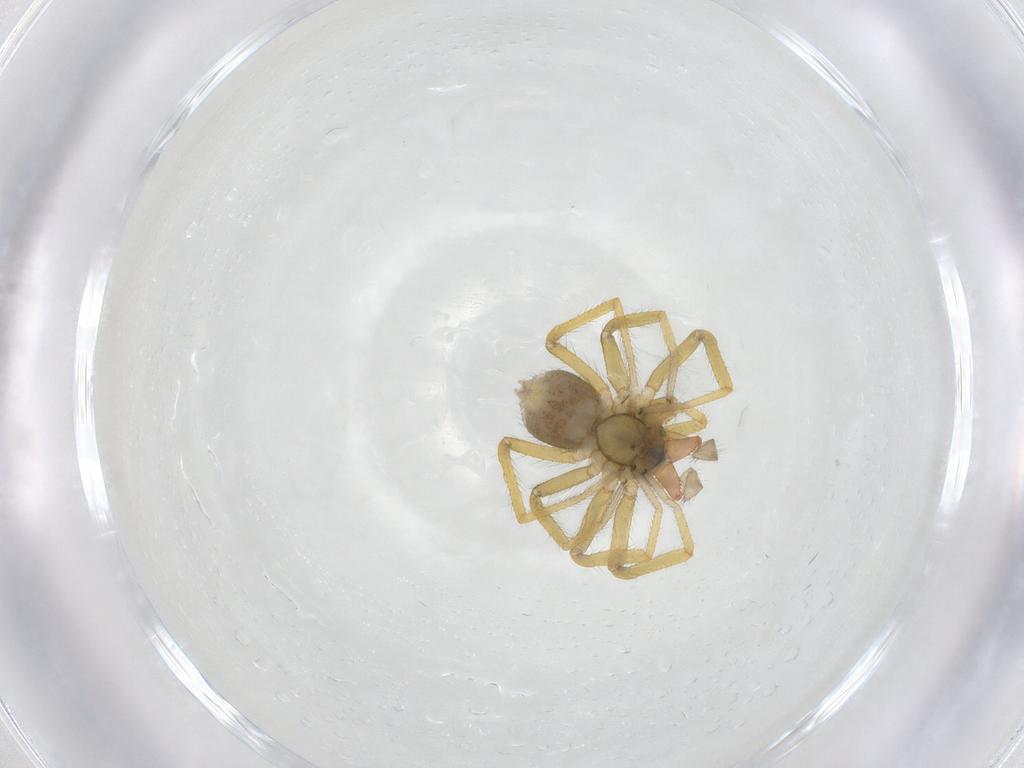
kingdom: Animalia
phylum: Arthropoda
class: Arachnida
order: Araneae
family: Linyphiidae
